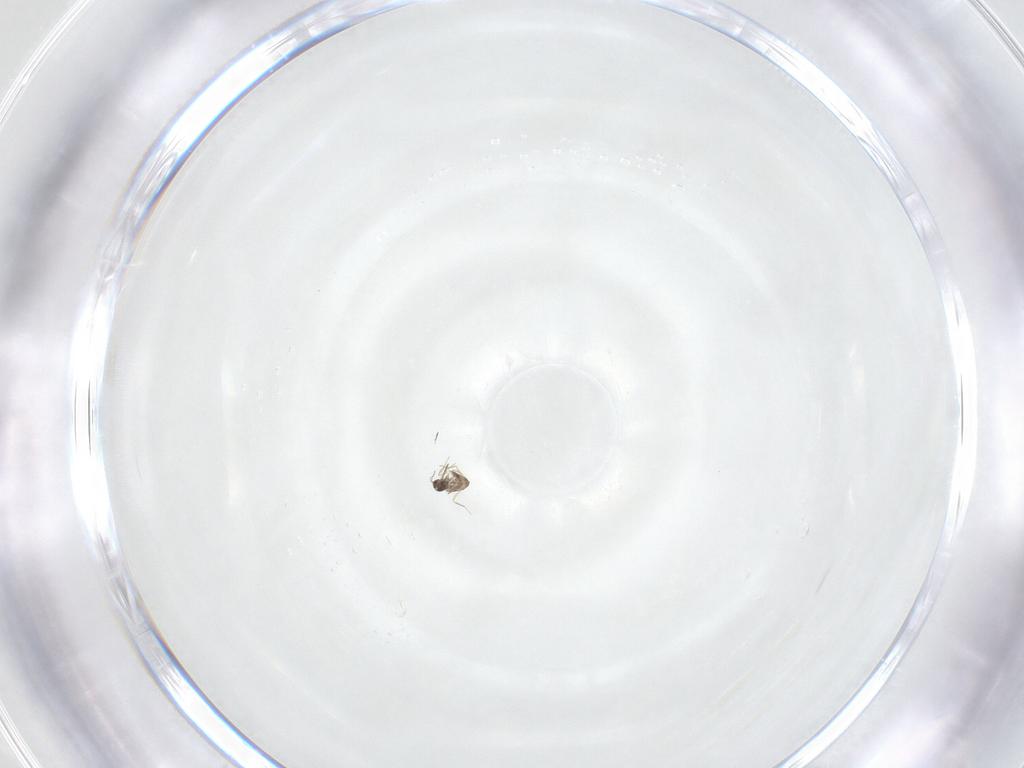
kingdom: Animalia
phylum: Arthropoda
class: Insecta
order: Hymenoptera
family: Mymaridae
